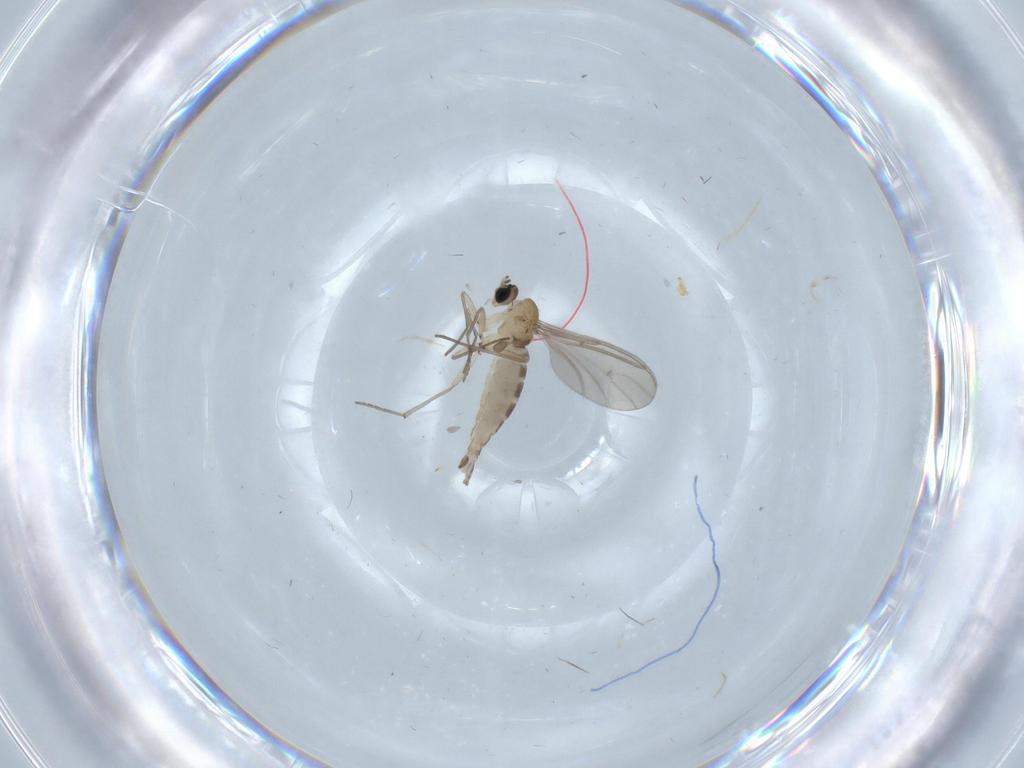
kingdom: Animalia
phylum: Arthropoda
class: Insecta
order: Diptera
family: Sciaridae
